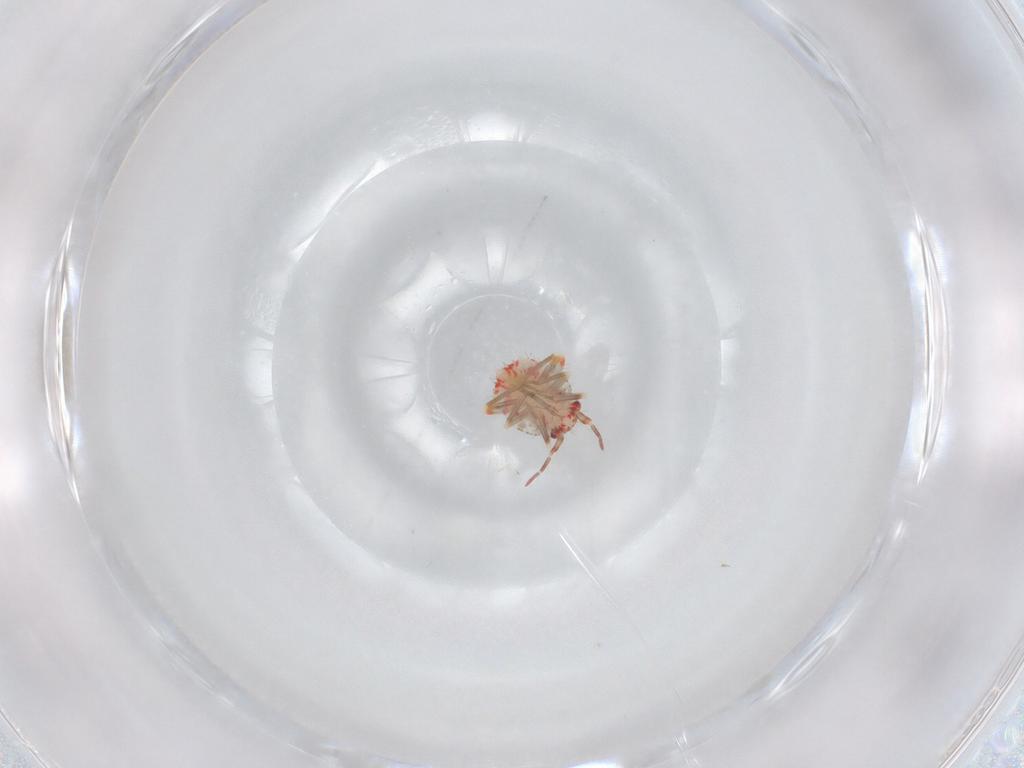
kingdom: Animalia
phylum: Arthropoda
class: Insecta
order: Hemiptera
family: Miridae
